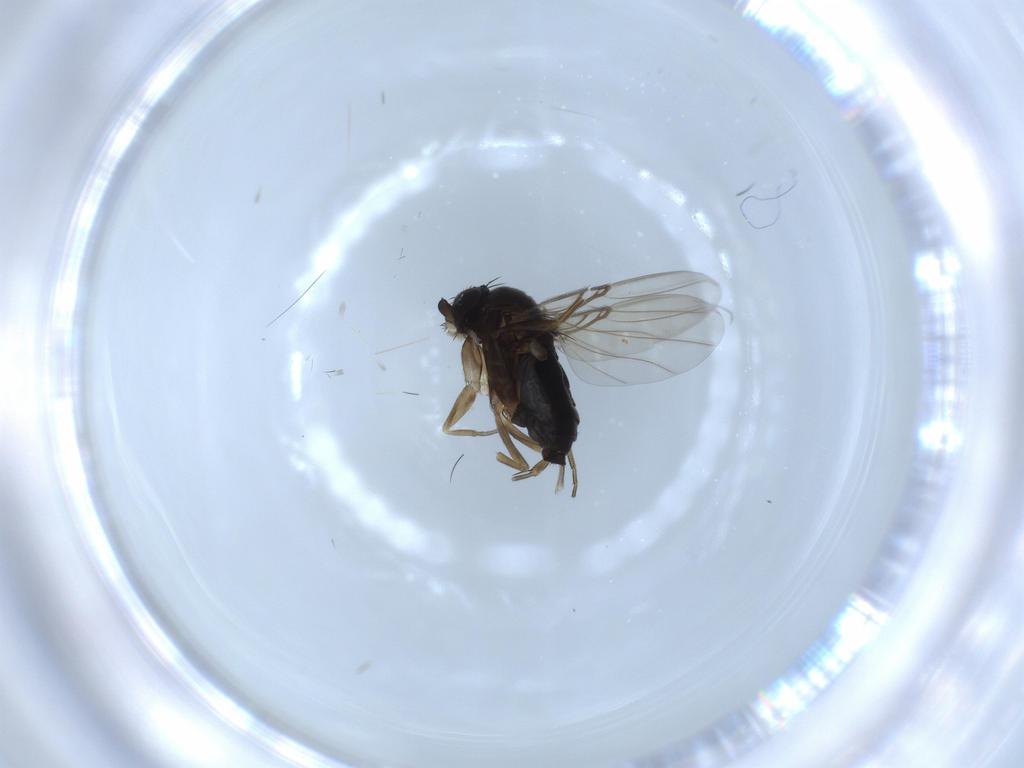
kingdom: Animalia
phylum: Arthropoda
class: Insecta
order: Diptera
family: Phoridae
